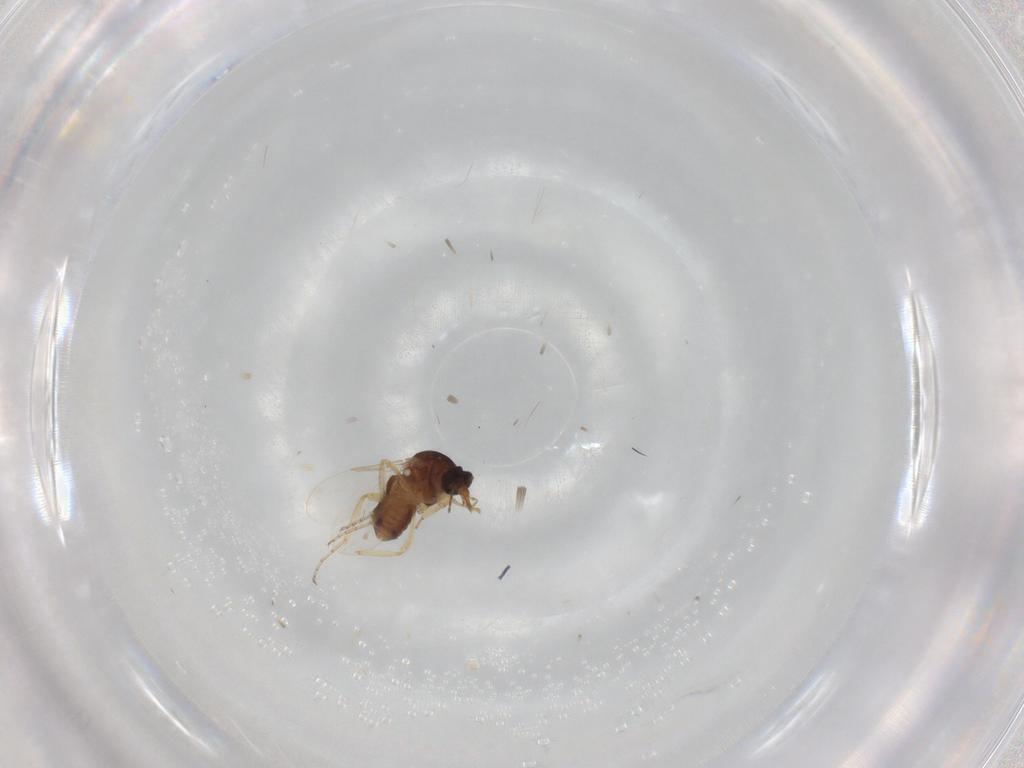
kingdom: Animalia
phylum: Arthropoda
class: Insecta
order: Diptera
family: Ceratopogonidae
